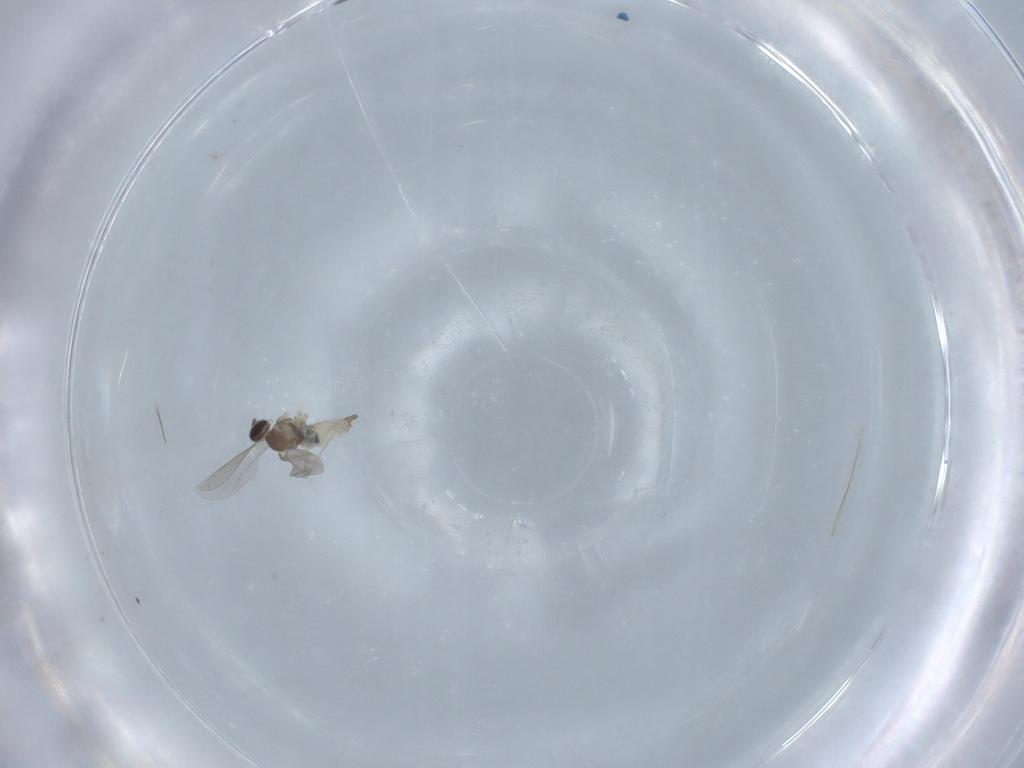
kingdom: Animalia
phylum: Arthropoda
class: Insecta
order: Diptera
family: Cecidomyiidae
